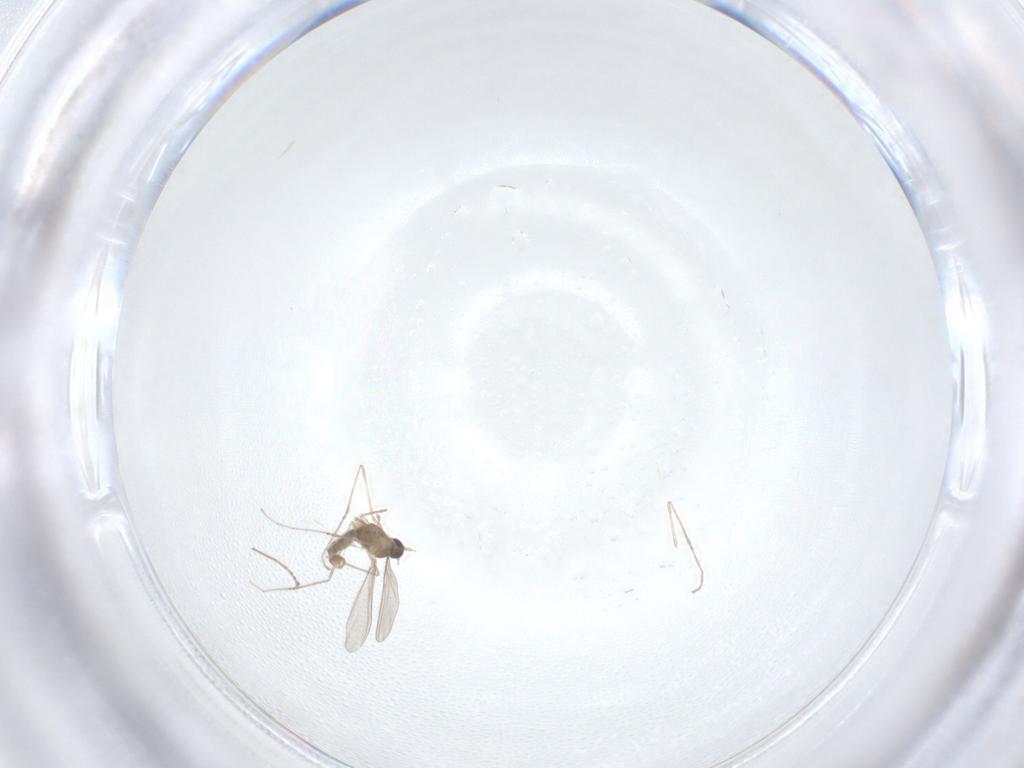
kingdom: Animalia
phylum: Arthropoda
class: Insecta
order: Diptera
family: Cecidomyiidae
